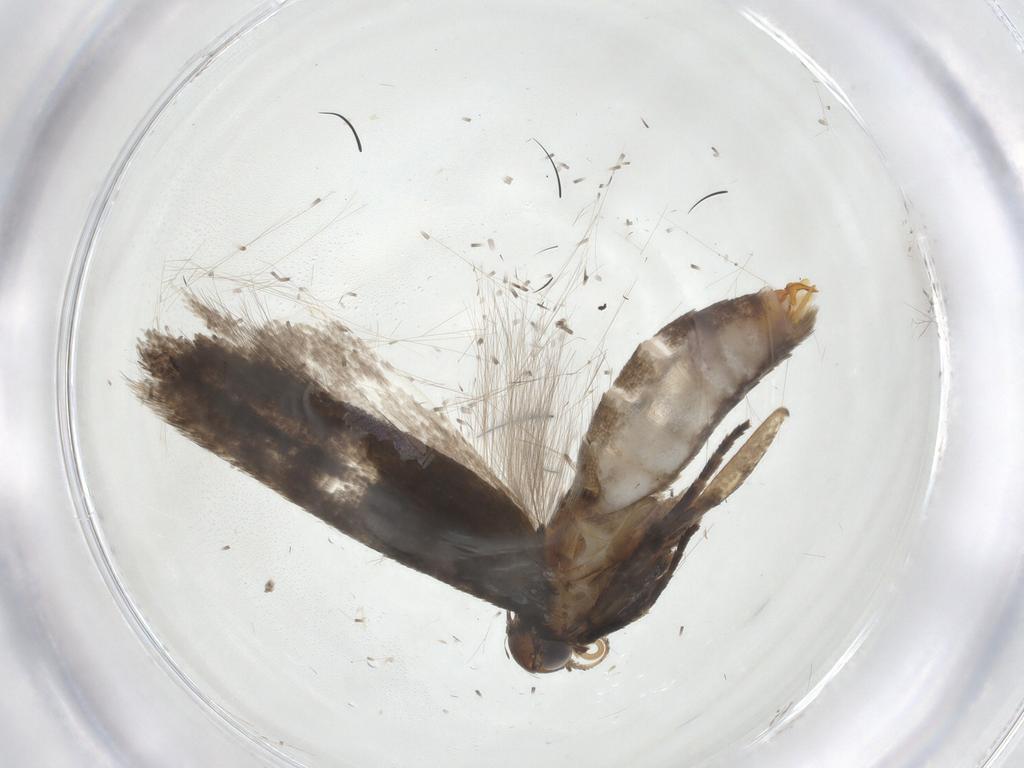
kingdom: Animalia
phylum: Arthropoda
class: Insecta
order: Lepidoptera
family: Gelechiidae
